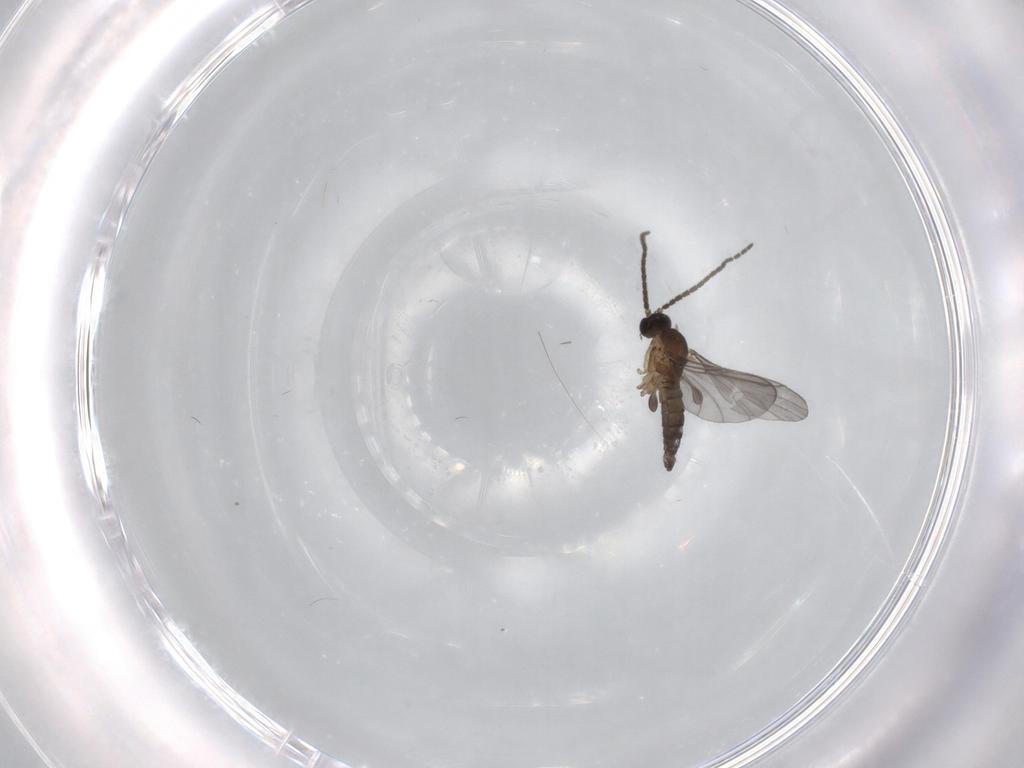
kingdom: Animalia
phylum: Arthropoda
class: Insecta
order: Diptera
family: Sciaridae
